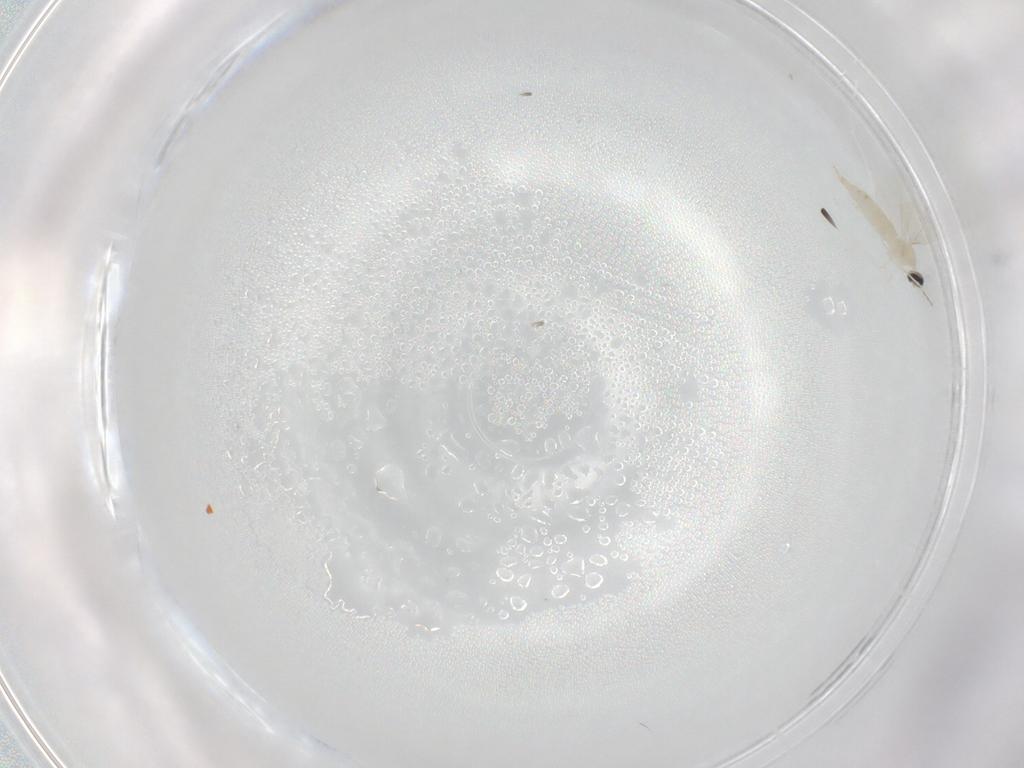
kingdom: Animalia
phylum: Arthropoda
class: Insecta
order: Diptera
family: Cecidomyiidae
